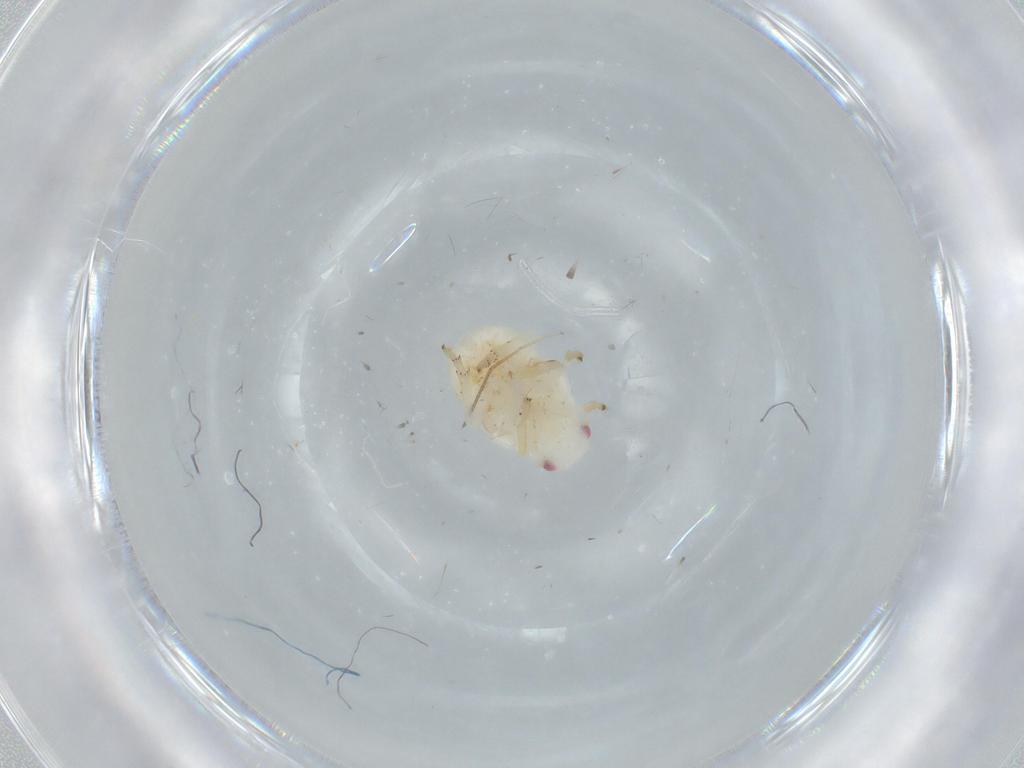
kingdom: Animalia
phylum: Arthropoda
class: Insecta
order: Hemiptera
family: Flatidae
